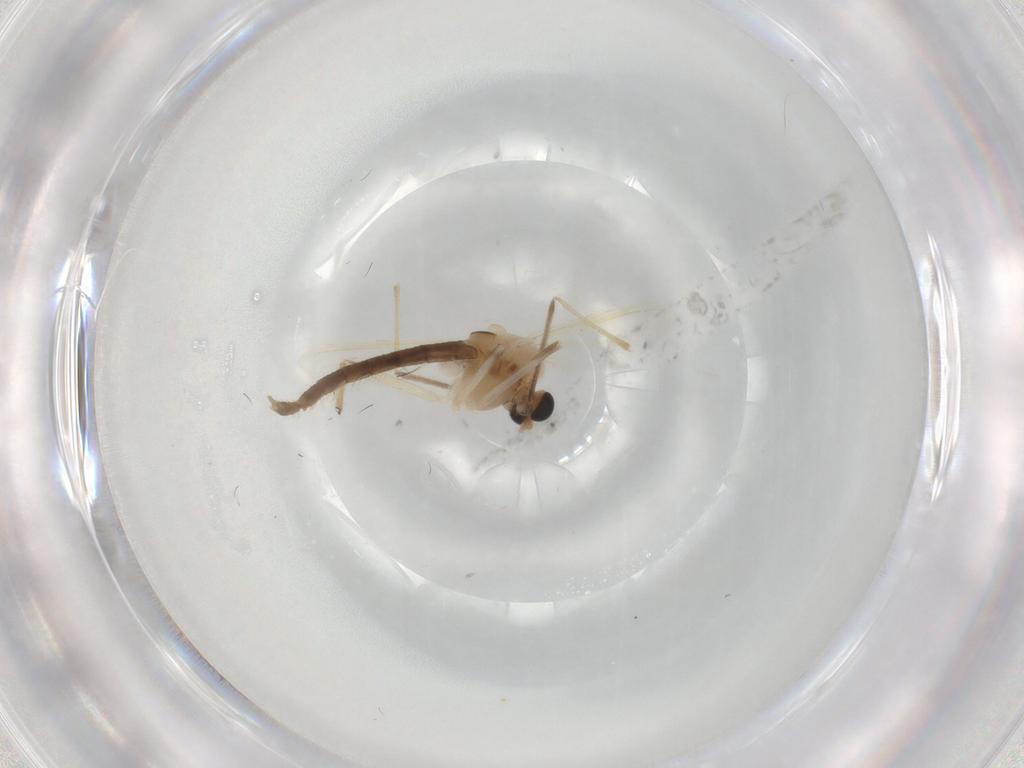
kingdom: Animalia
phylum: Arthropoda
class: Insecta
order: Diptera
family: Chironomidae
